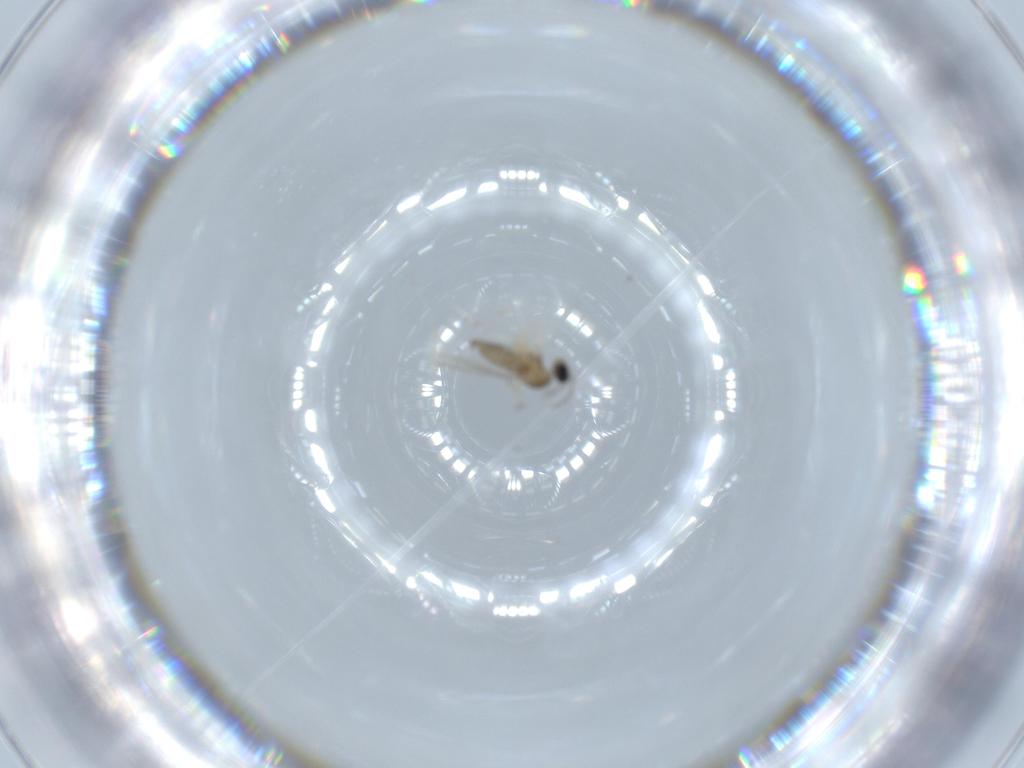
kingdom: Animalia
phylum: Arthropoda
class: Insecta
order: Diptera
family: Cecidomyiidae
